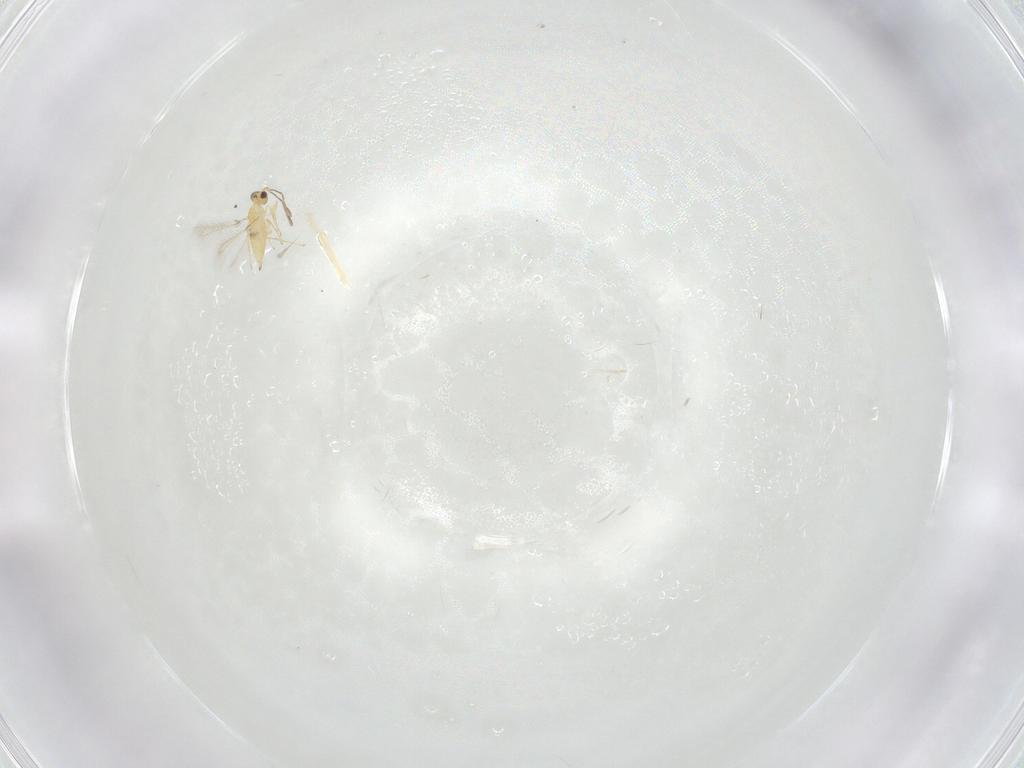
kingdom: Animalia
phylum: Arthropoda
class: Insecta
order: Hymenoptera
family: Mymaridae
